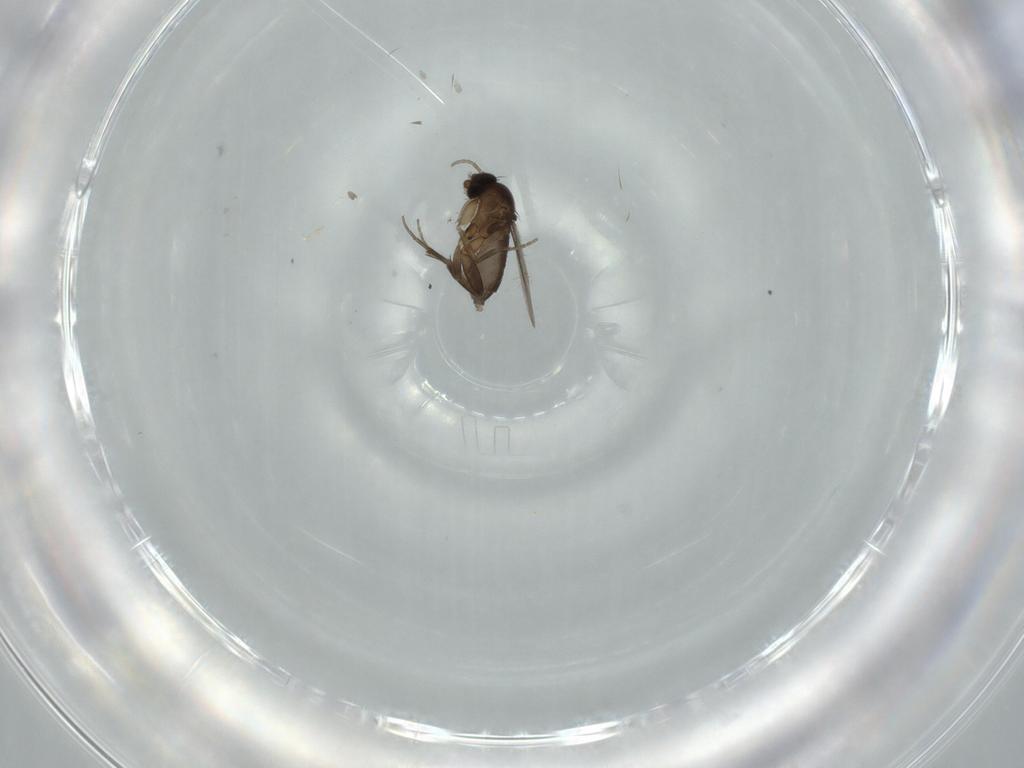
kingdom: Animalia
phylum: Arthropoda
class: Insecta
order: Diptera
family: Phoridae
